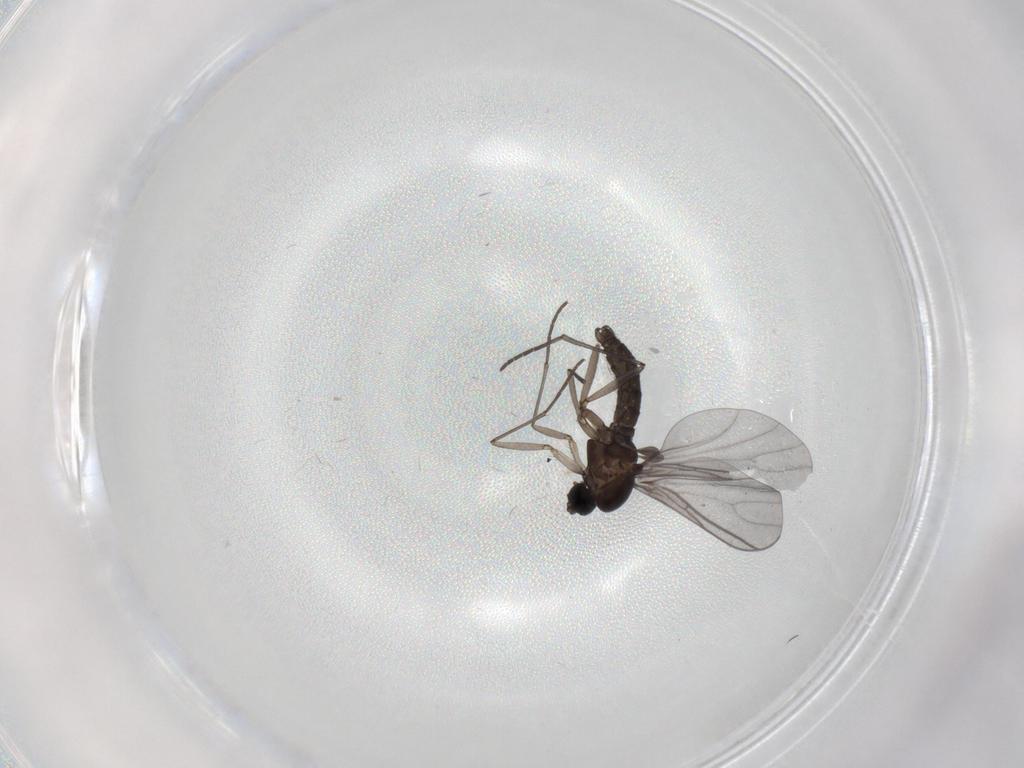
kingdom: Animalia
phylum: Arthropoda
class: Insecta
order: Diptera
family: Sciaridae
